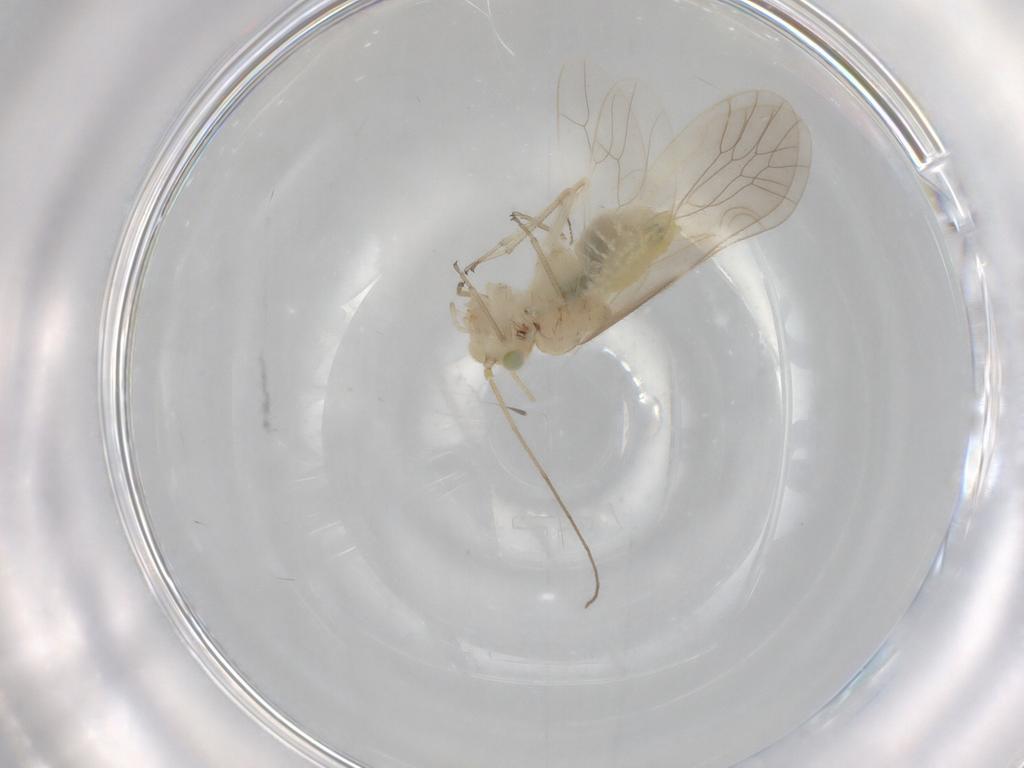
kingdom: Animalia
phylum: Arthropoda
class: Insecta
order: Psocodea
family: Caeciliusidae
